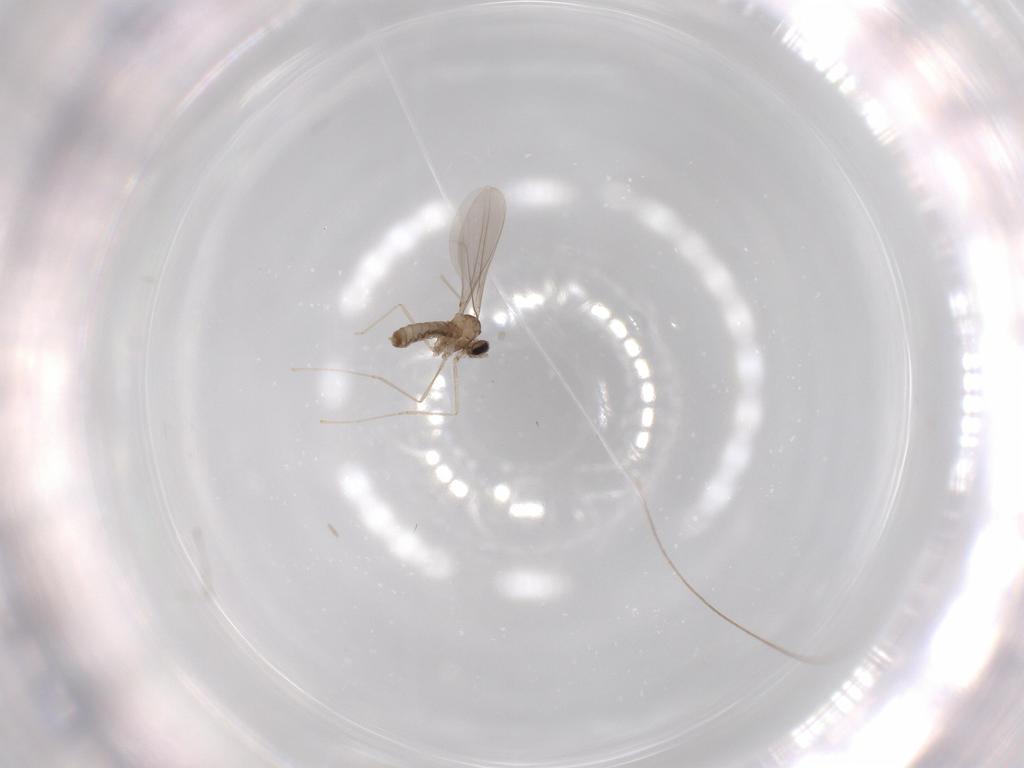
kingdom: Animalia
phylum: Arthropoda
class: Insecta
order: Diptera
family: Cecidomyiidae
